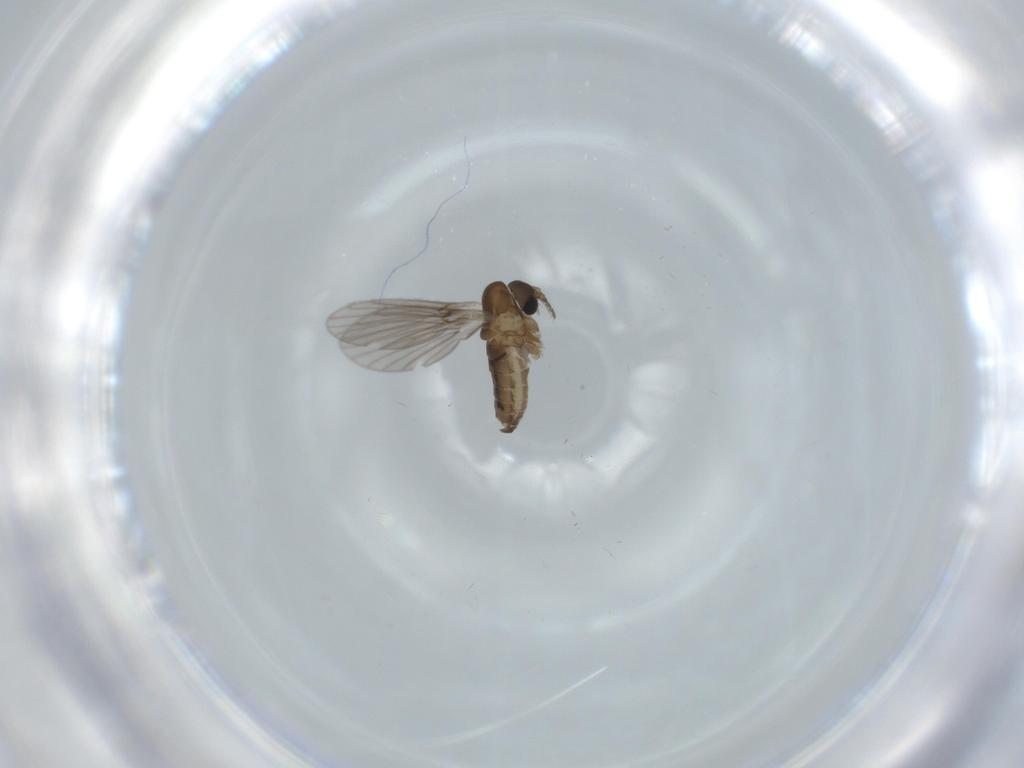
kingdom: Animalia
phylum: Arthropoda
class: Insecta
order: Diptera
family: Psychodidae
